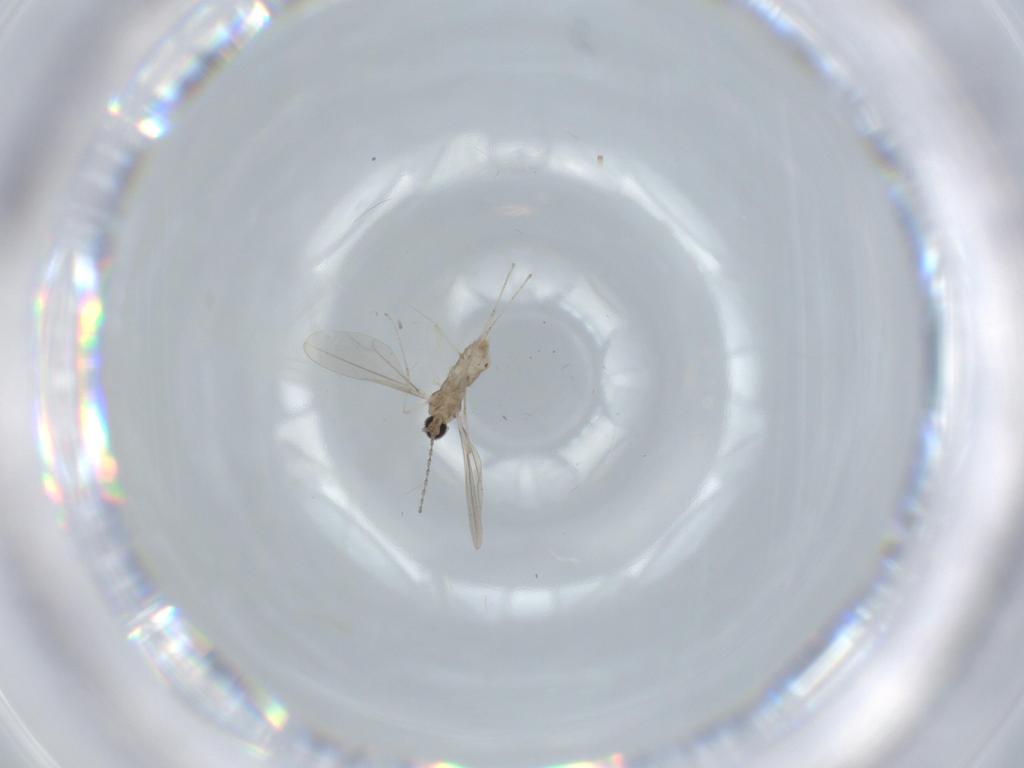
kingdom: Animalia
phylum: Arthropoda
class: Insecta
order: Diptera
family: Cecidomyiidae
